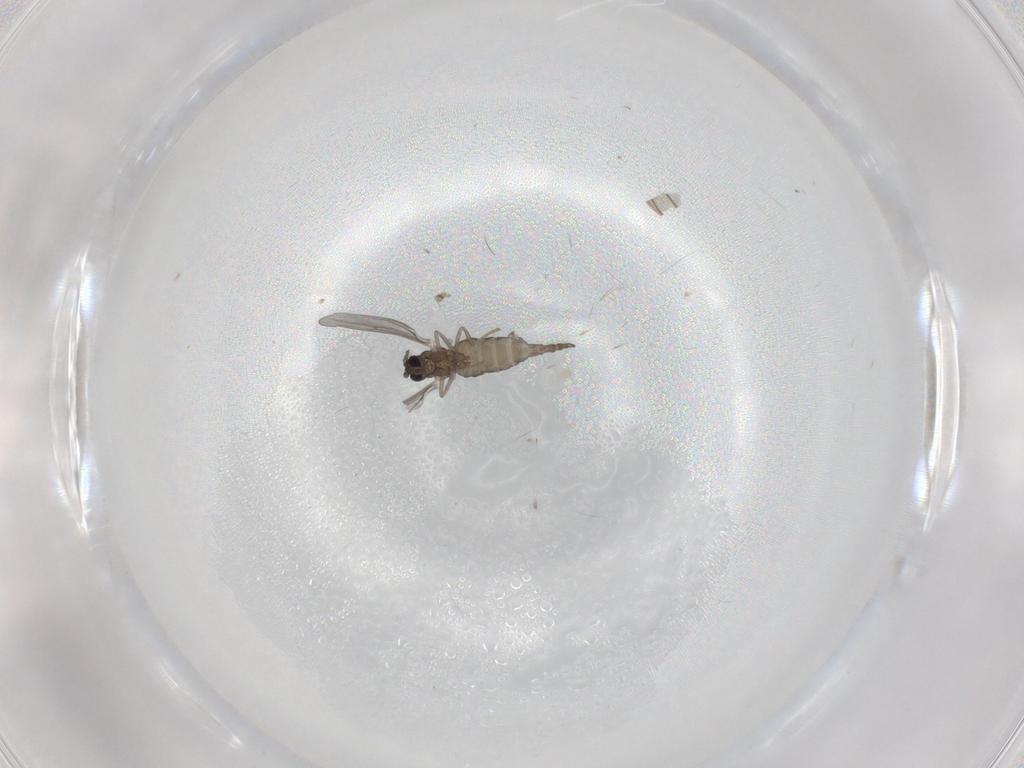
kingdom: Animalia
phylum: Arthropoda
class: Insecta
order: Diptera
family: Cecidomyiidae
